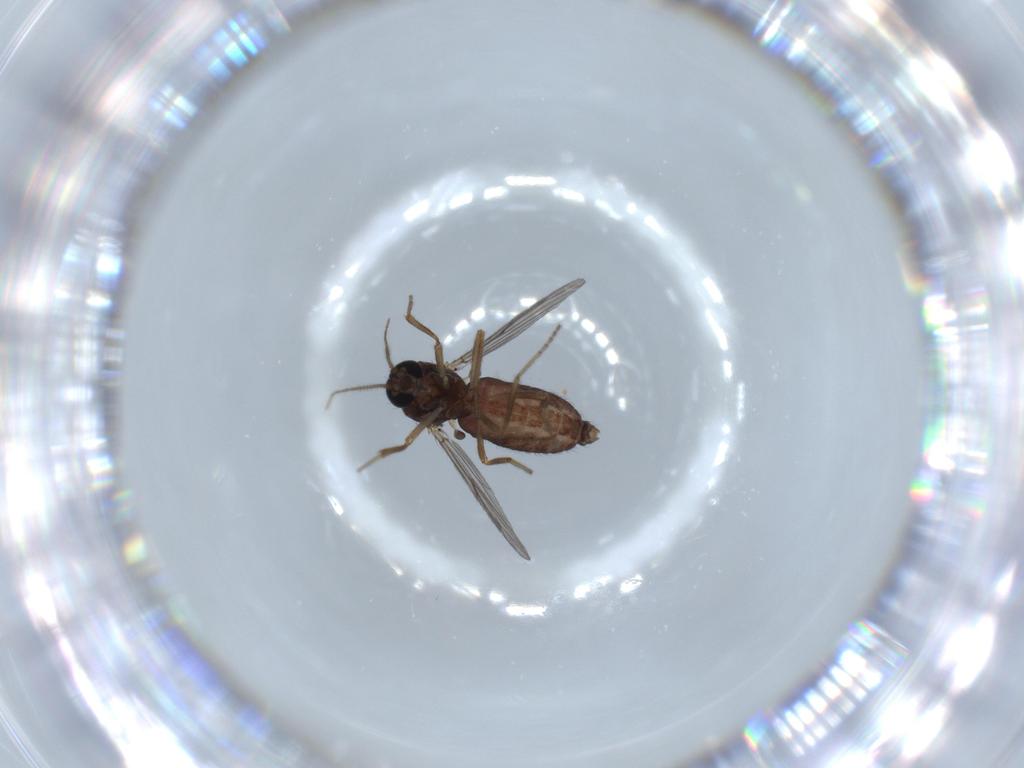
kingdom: Animalia
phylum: Arthropoda
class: Insecta
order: Diptera
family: Ceratopogonidae
